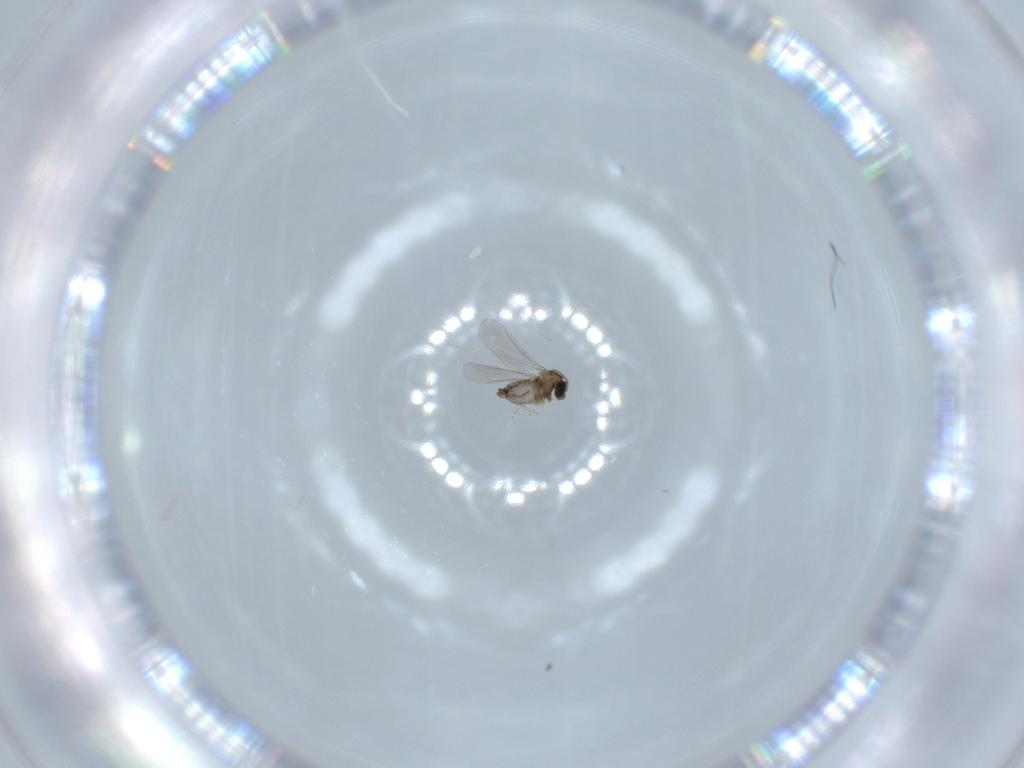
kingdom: Animalia
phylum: Arthropoda
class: Insecta
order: Diptera
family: Cecidomyiidae
